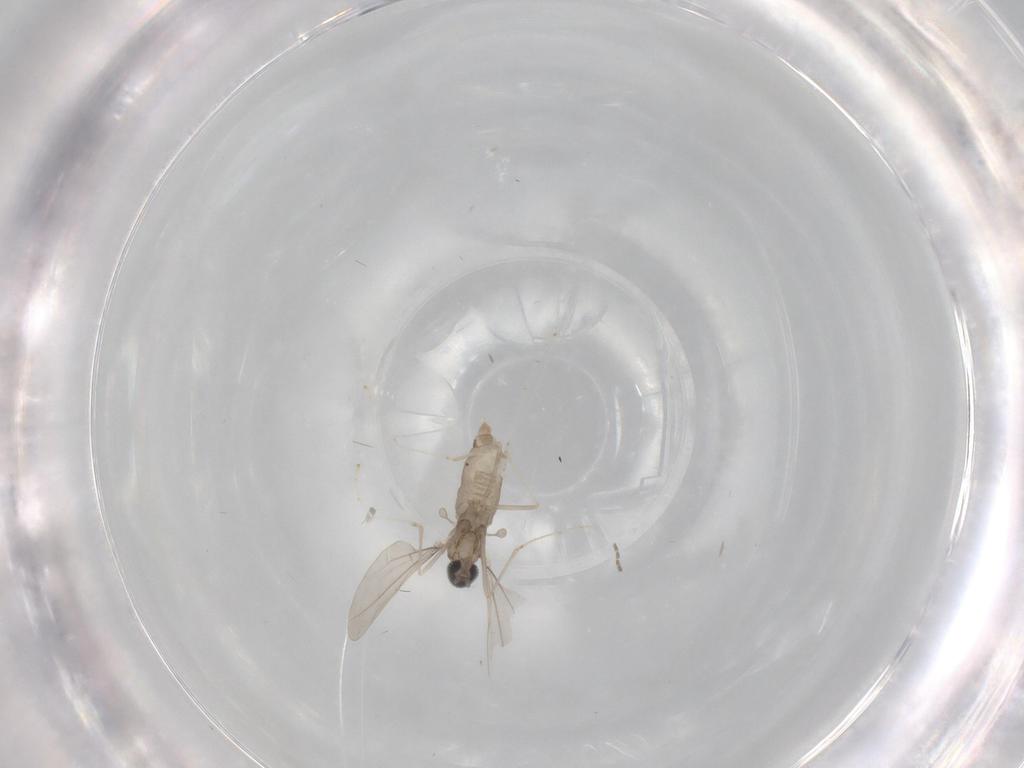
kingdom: Animalia
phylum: Arthropoda
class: Insecta
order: Diptera
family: Cecidomyiidae
